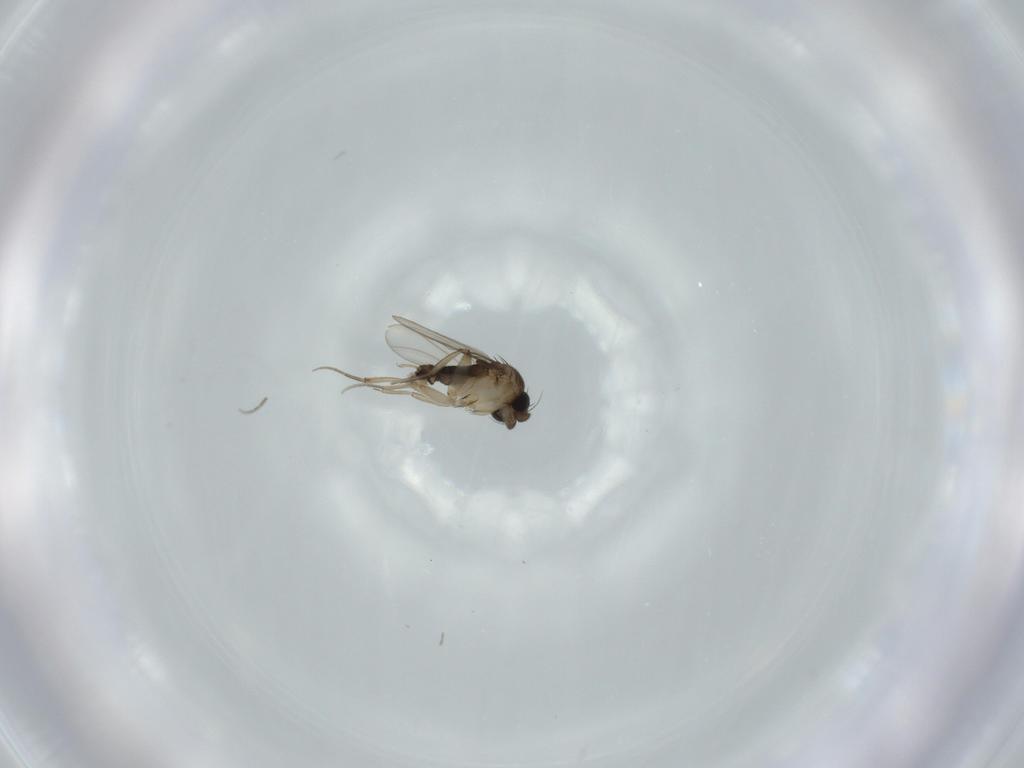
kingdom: Animalia
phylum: Arthropoda
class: Insecta
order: Diptera
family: Phoridae
